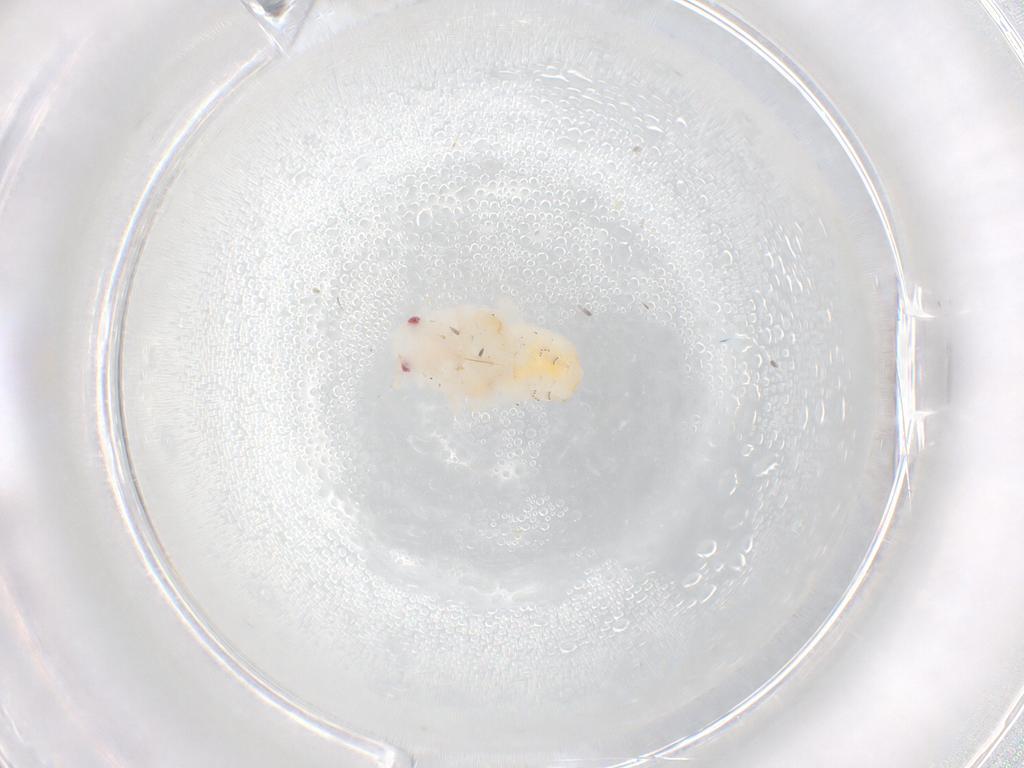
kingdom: Animalia
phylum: Arthropoda
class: Insecta
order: Hemiptera
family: Flatidae
